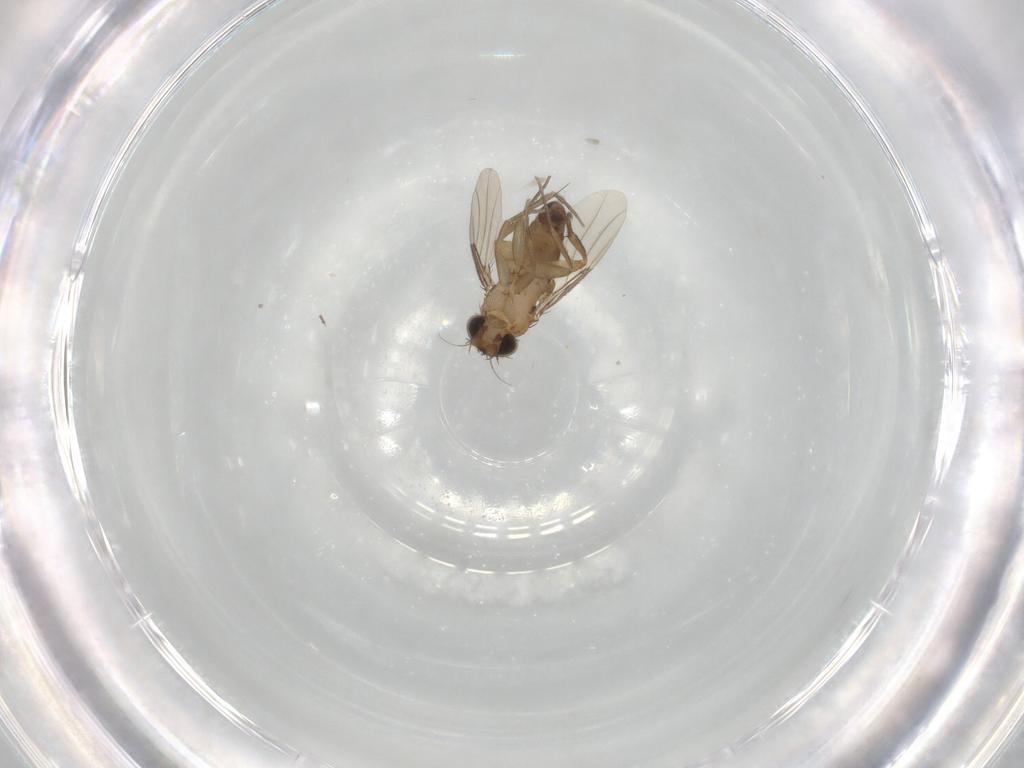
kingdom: Animalia
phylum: Arthropoda
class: Insecta
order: Diptera
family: Phoridae
